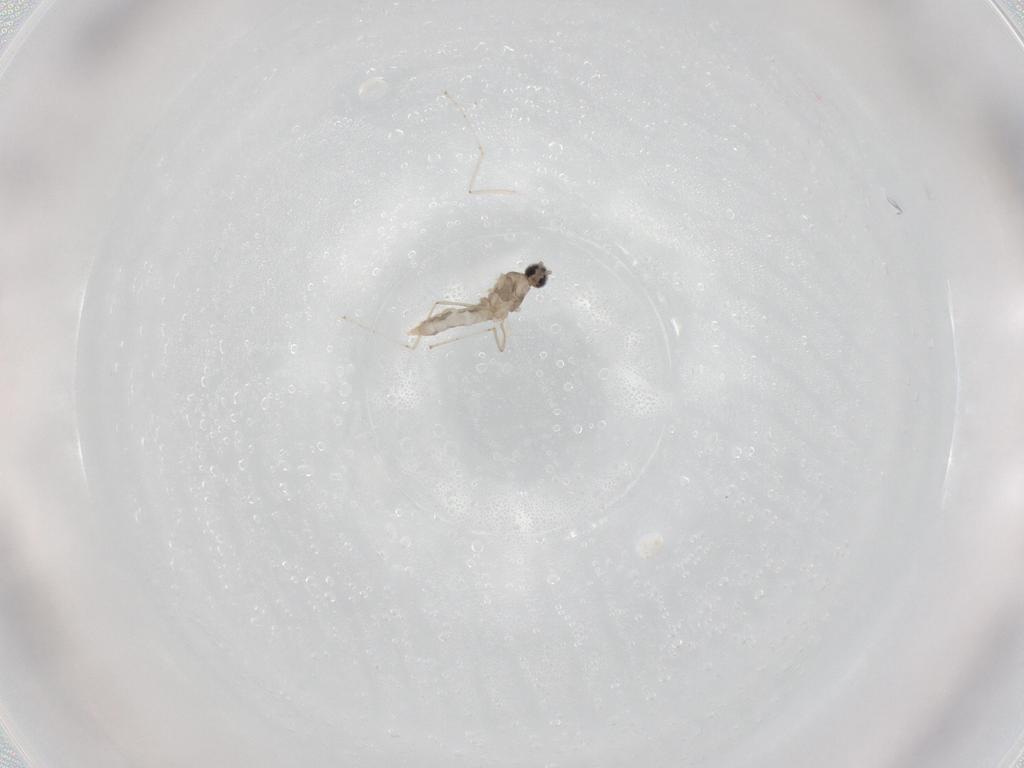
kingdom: Animalia
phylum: Arthropoda
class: Insecta
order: Diptera
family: Cecidomyiidae
